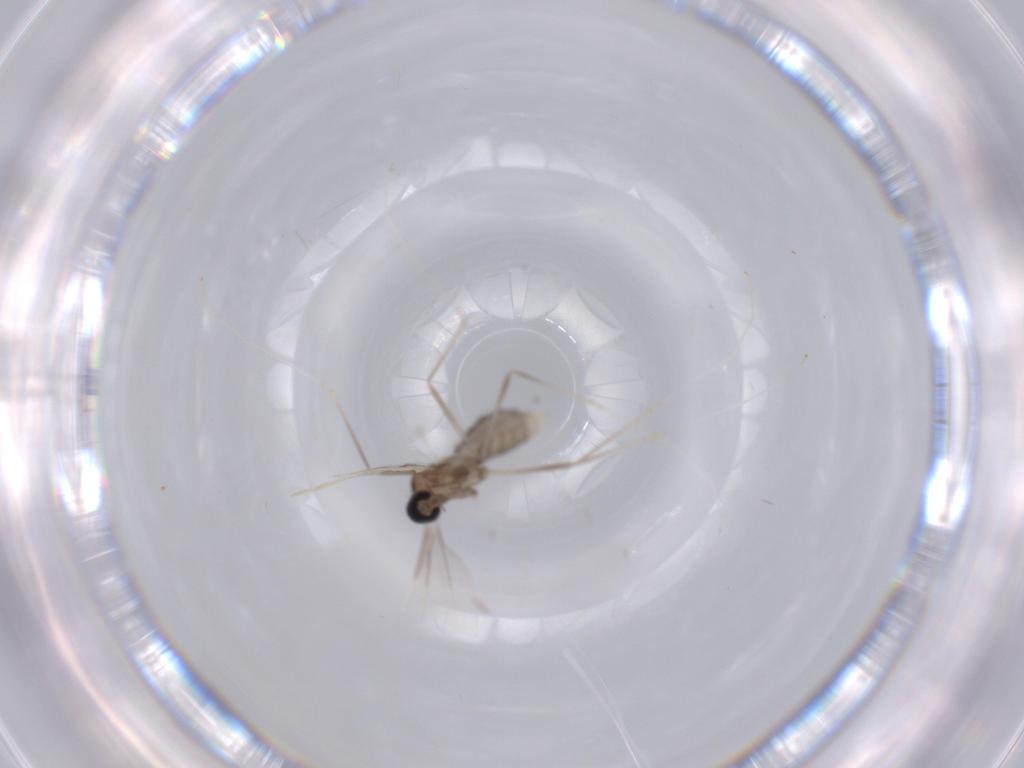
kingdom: Animalia
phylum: Arthropoda
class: Insecta
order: Diptera
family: Cecidomyiidae
